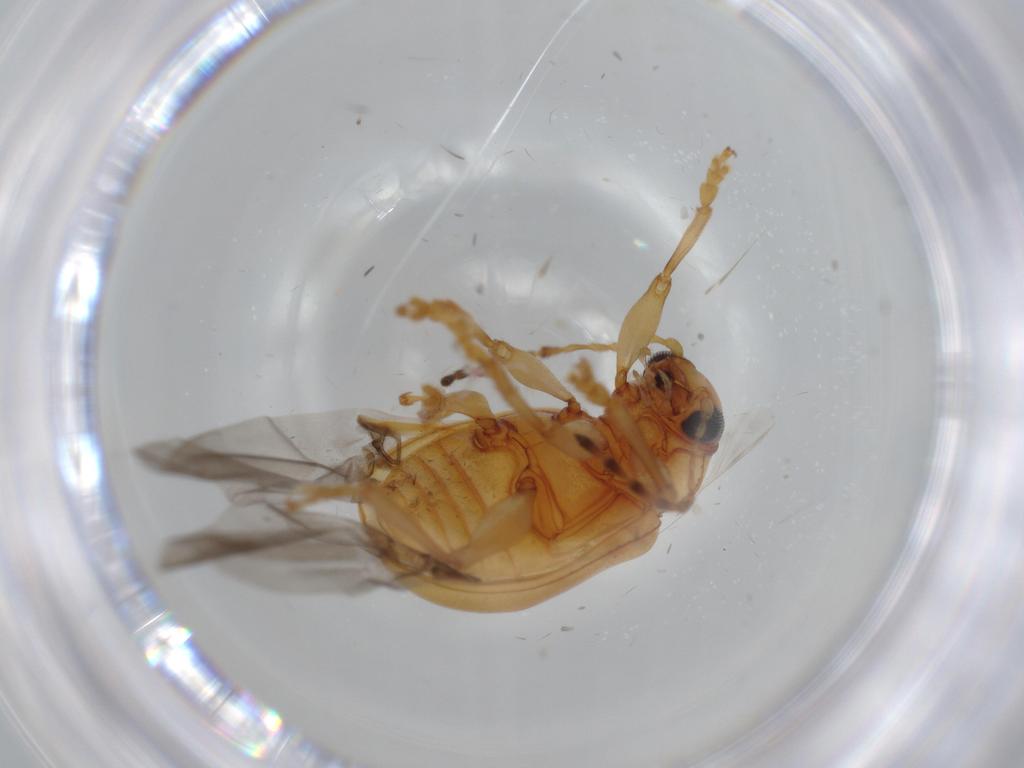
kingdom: Animalia
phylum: Arthropoda
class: Insecta
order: Coleoptera
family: Chrysomelidae
